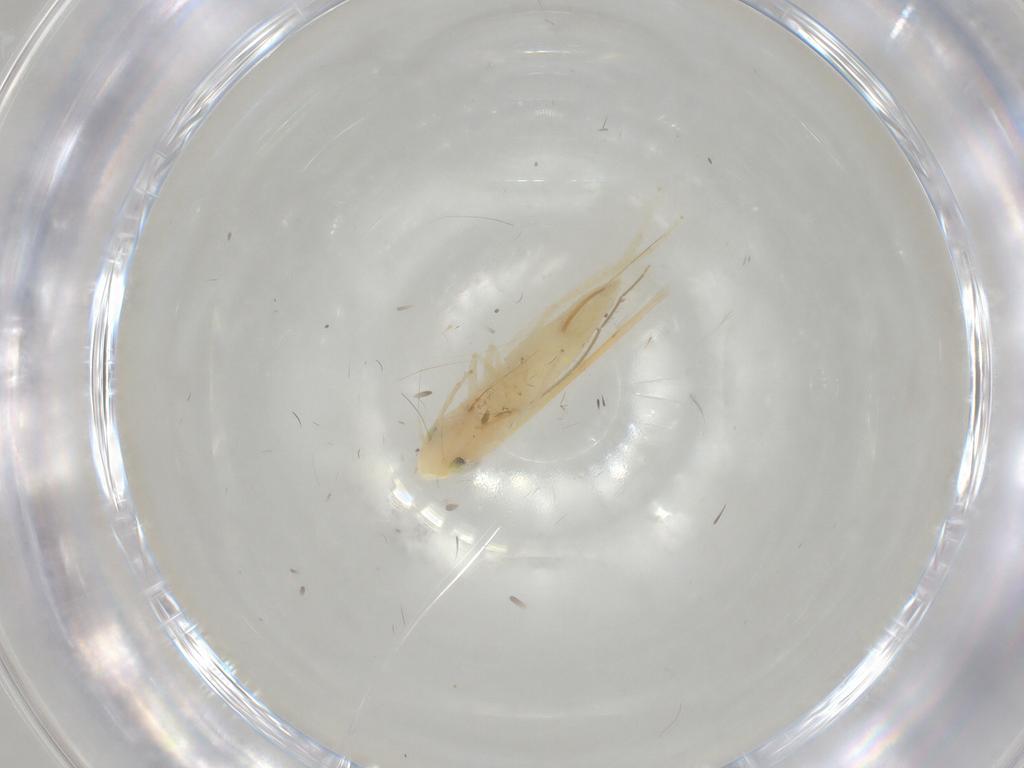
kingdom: Animalia
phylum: Arthropoda
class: Insecta
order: Hemiptera
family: Cicadellidae
